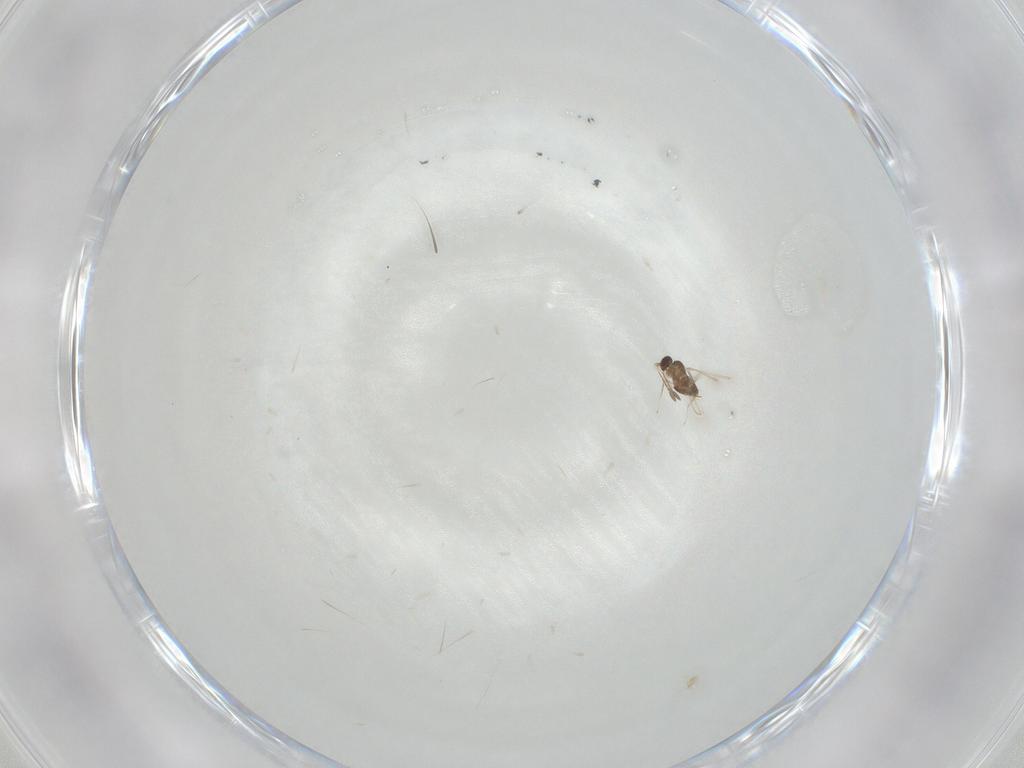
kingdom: Animalia
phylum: Arthropoda
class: Insecta
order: Hymenoptera
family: Mymaridae
